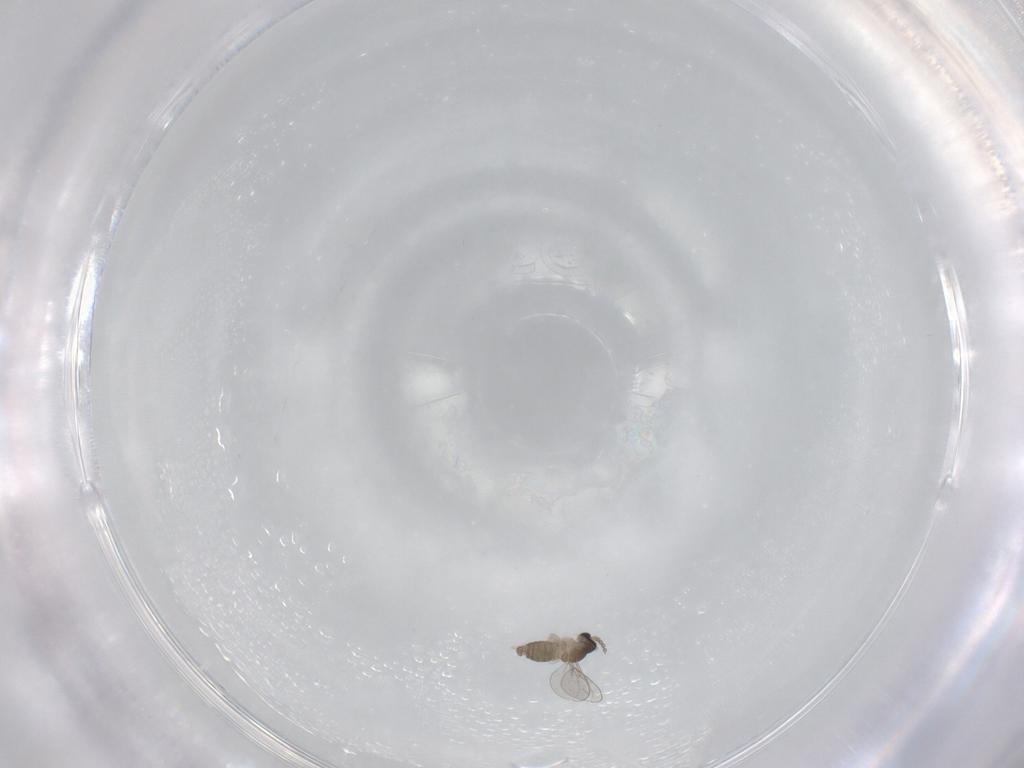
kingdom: Animalia
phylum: Arthropoda
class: Insecta
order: Diptera
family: Cecidomyiidae
